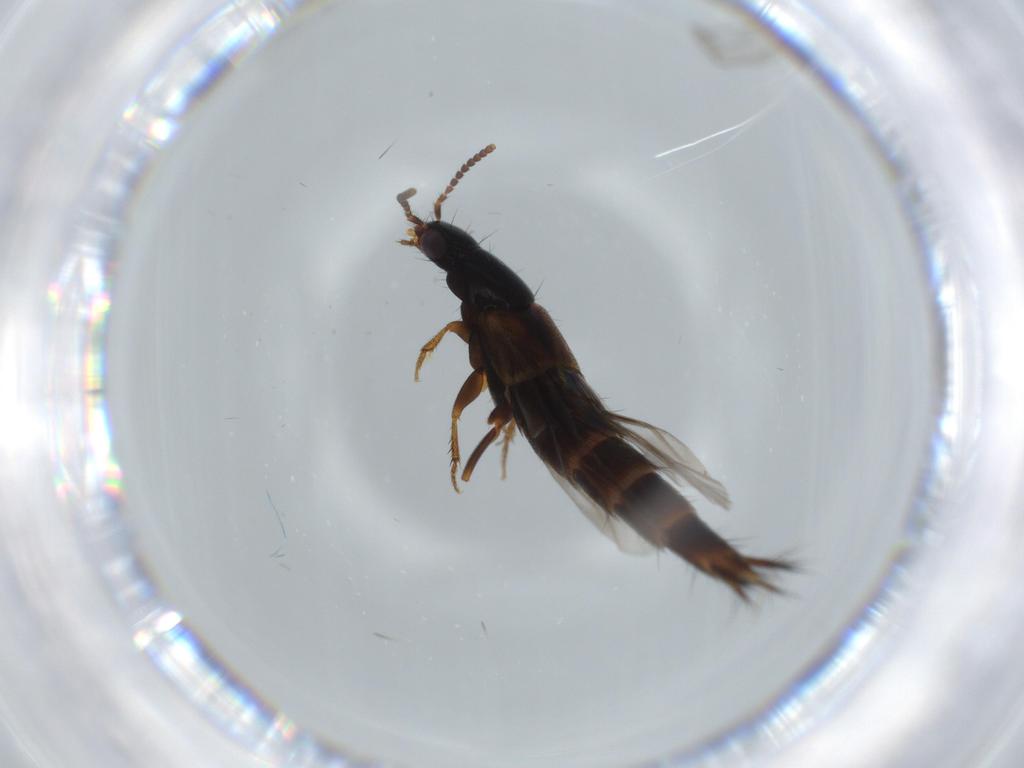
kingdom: Animalia
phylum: Arthropoda
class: Insecta
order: Coleoptera
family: Staphylinidae
